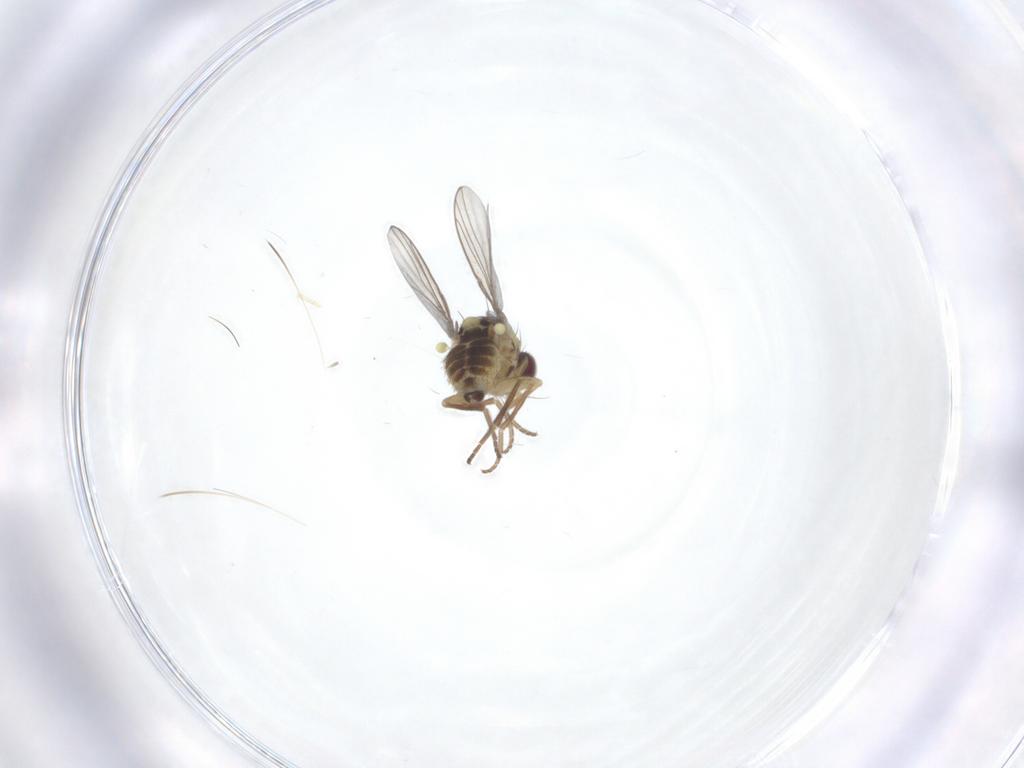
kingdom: Animalia
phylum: Arthropoda
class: Insecta
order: Diptera
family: Agromyzidae
